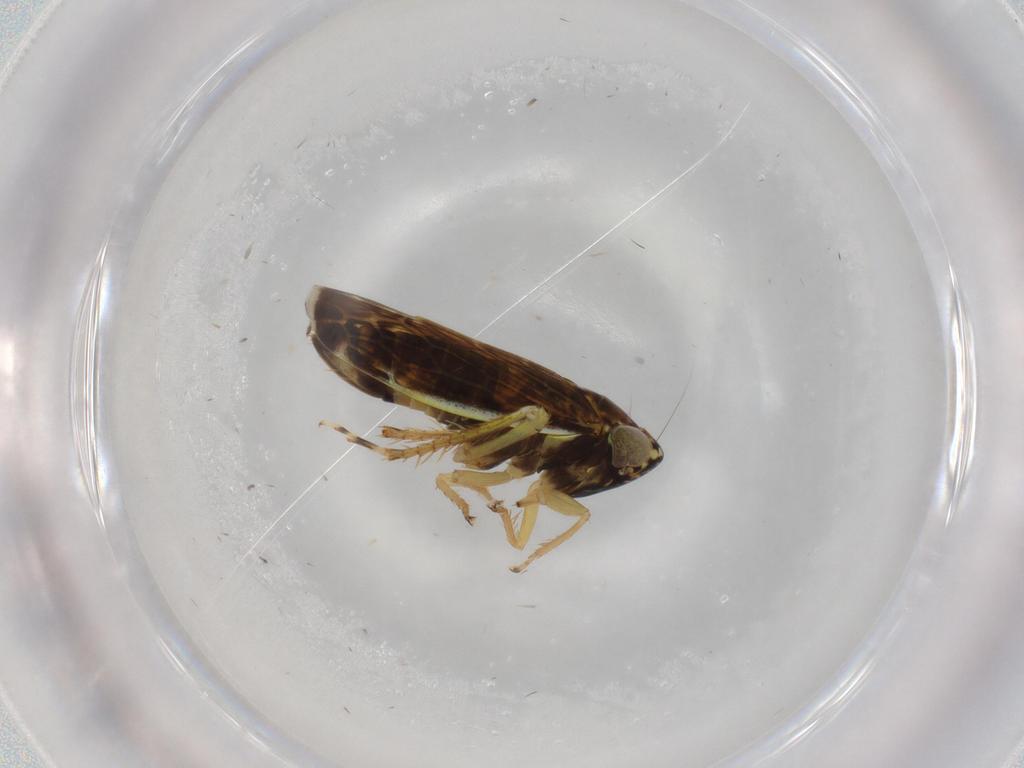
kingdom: Animalia
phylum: Arthropoda
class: Insecta
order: Hemiptera
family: Cicadellidae
